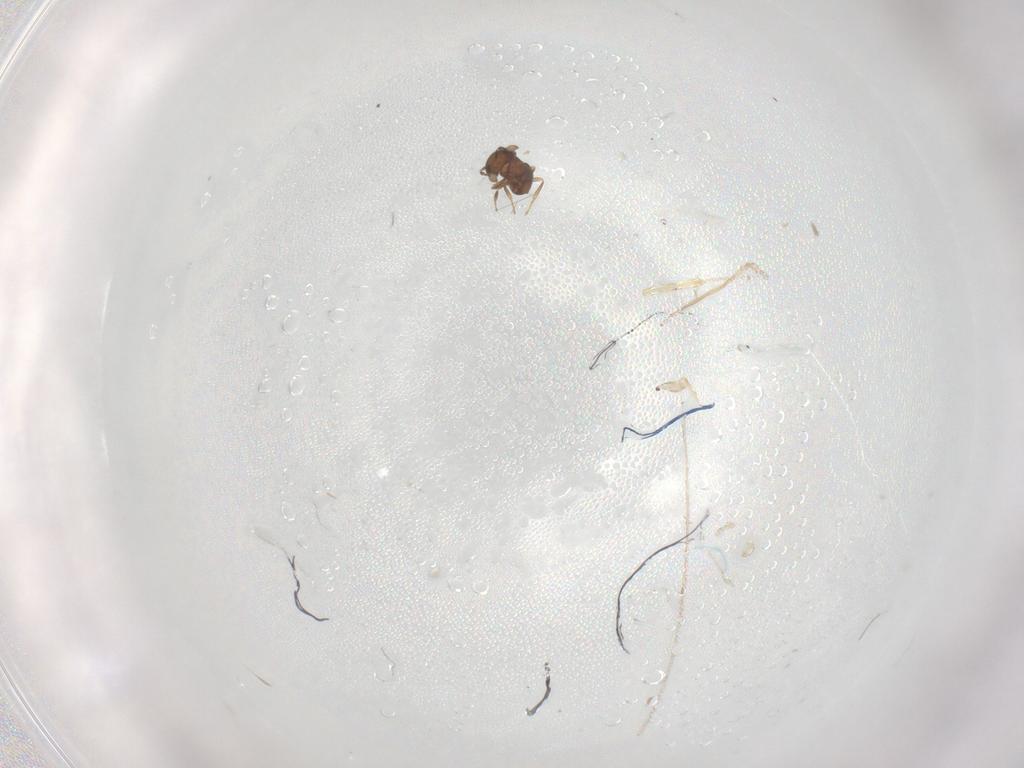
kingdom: Animalia
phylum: Arthropoda
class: Insecta
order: Hymenoptera
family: Scelionidae
